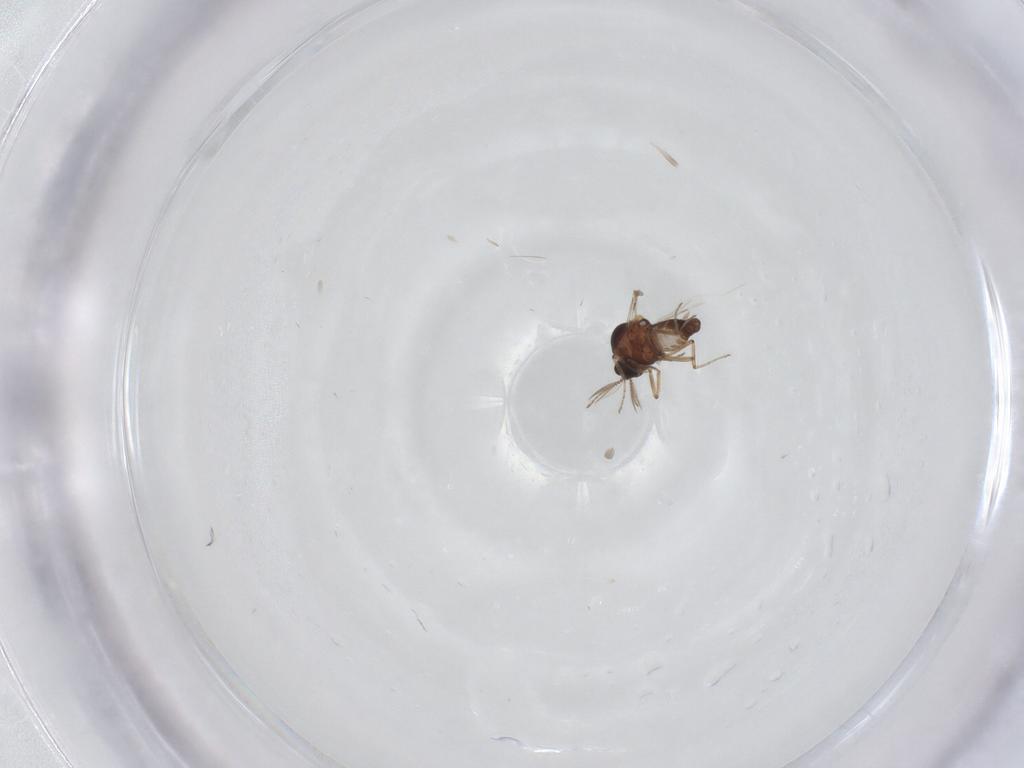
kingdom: Animalia
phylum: Arthropoda
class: Insecta
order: Diptera
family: Ceratopogonidae
